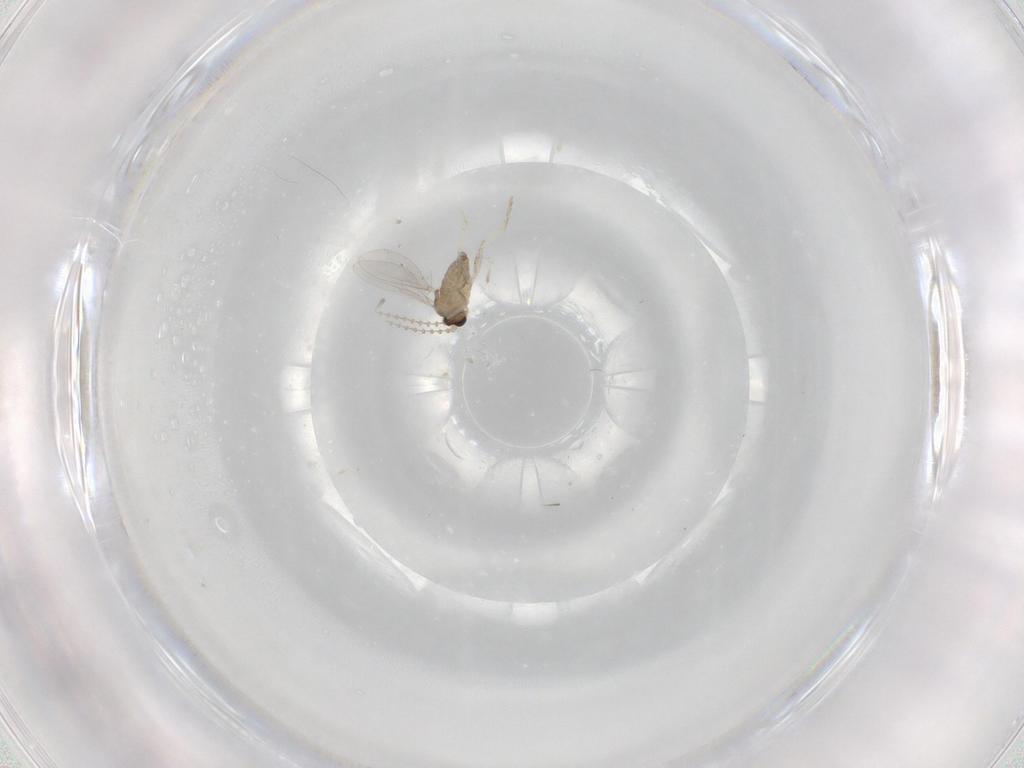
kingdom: Animalia
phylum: Arthropoda
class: Insecta
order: Diptera
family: Cecidomyiidae
